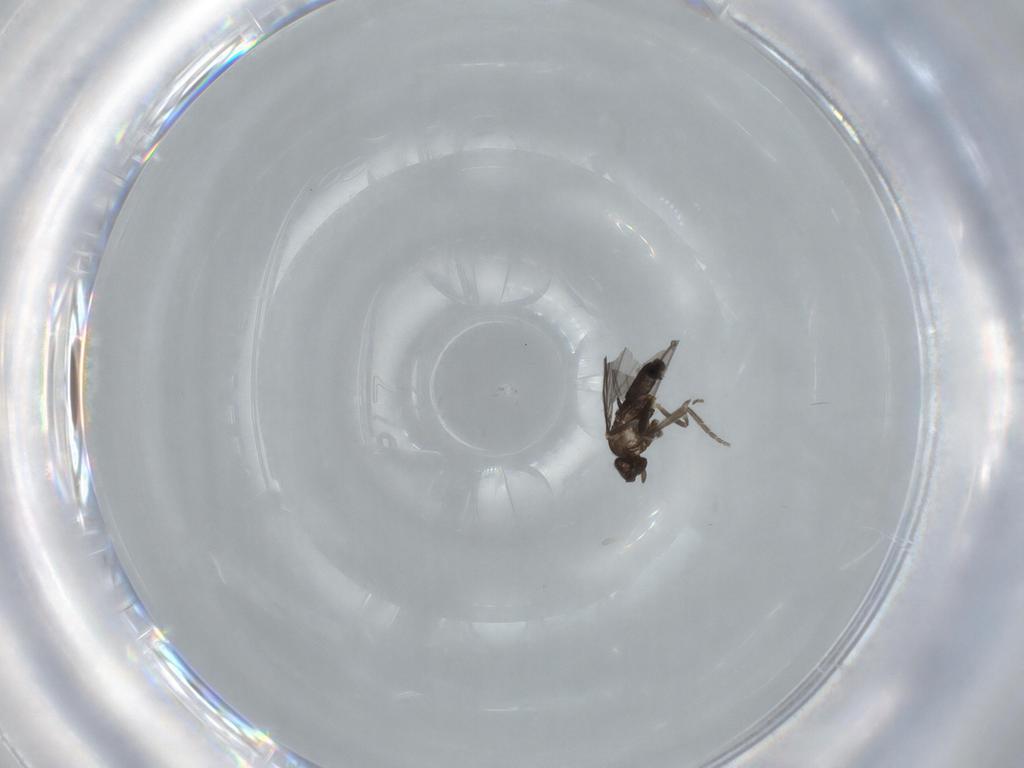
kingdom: Animalia
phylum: Arthropoda
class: Insecta
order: Diptera
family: Phoridae
